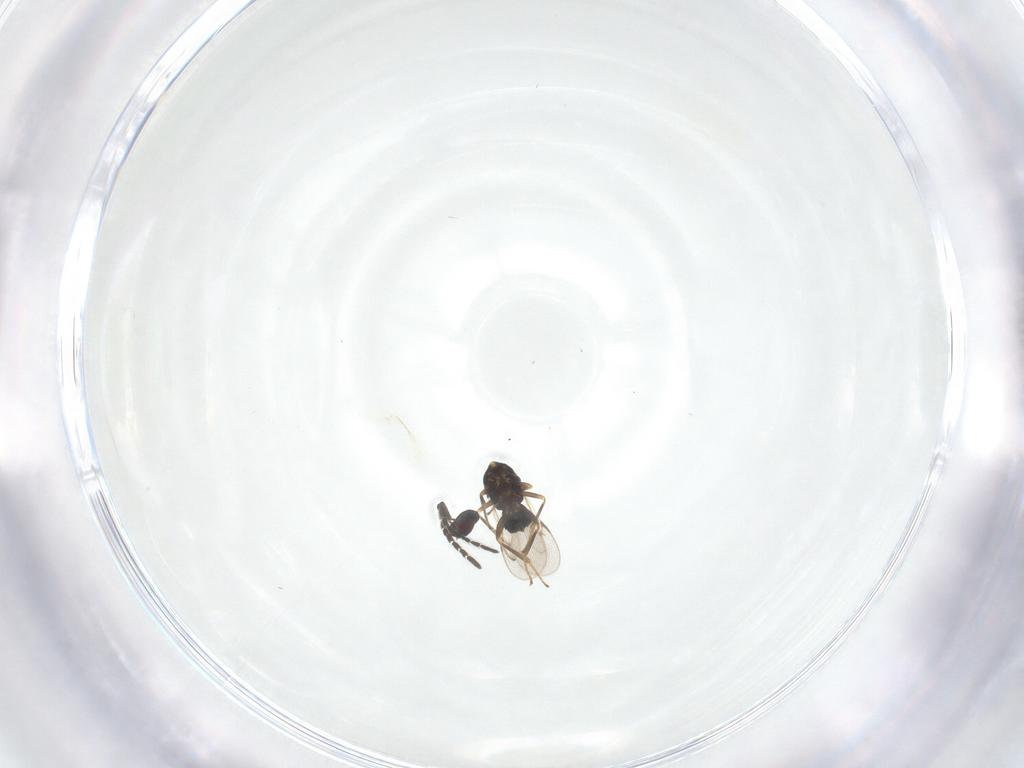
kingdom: Animalia
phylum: Arthropoda
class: Insecta
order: Hymenoptera
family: Encyrtidae
